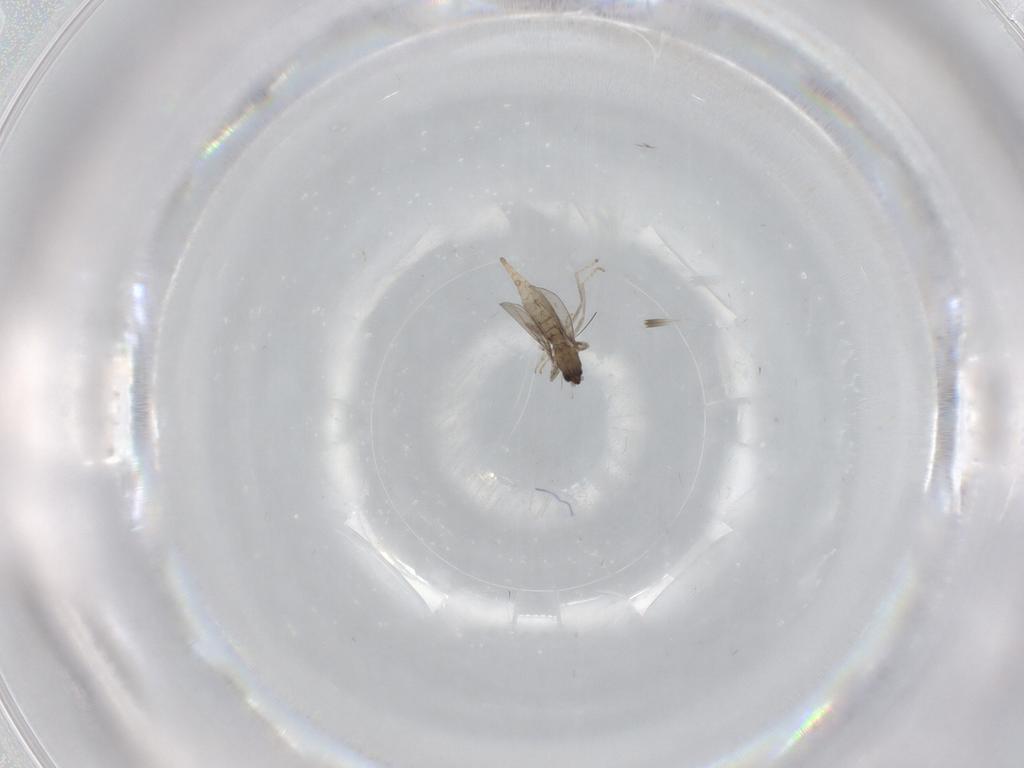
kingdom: Animalia
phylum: Arthropoda
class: Insecta
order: Diptera
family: Cecidomyiidae
